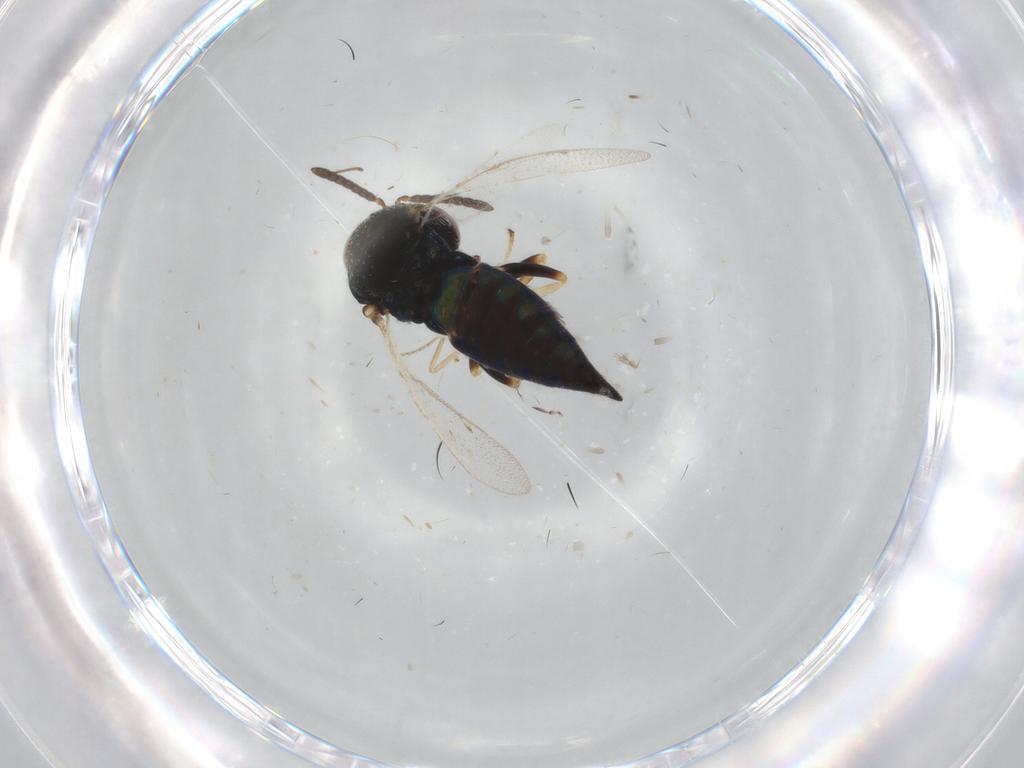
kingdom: Animalia
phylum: Arthropoda
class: Insecta
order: Hymenoptera
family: Pteromalidae
